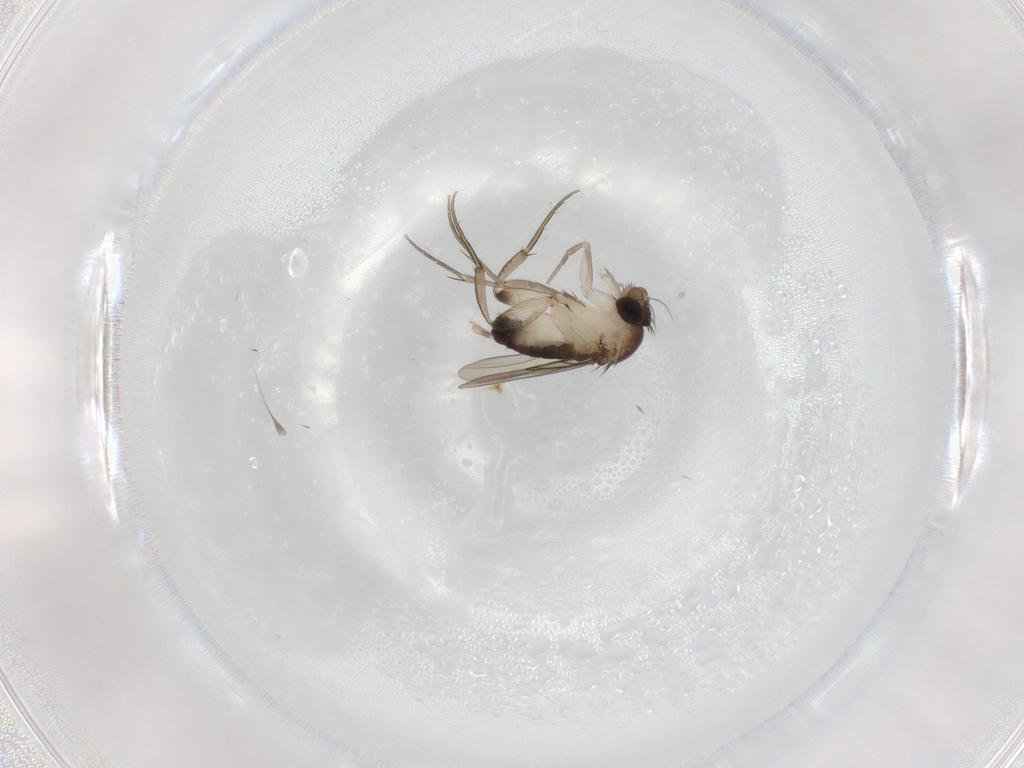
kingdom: Animalia
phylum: Arthropoda
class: Insecta
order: Diptera
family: Phoridae
